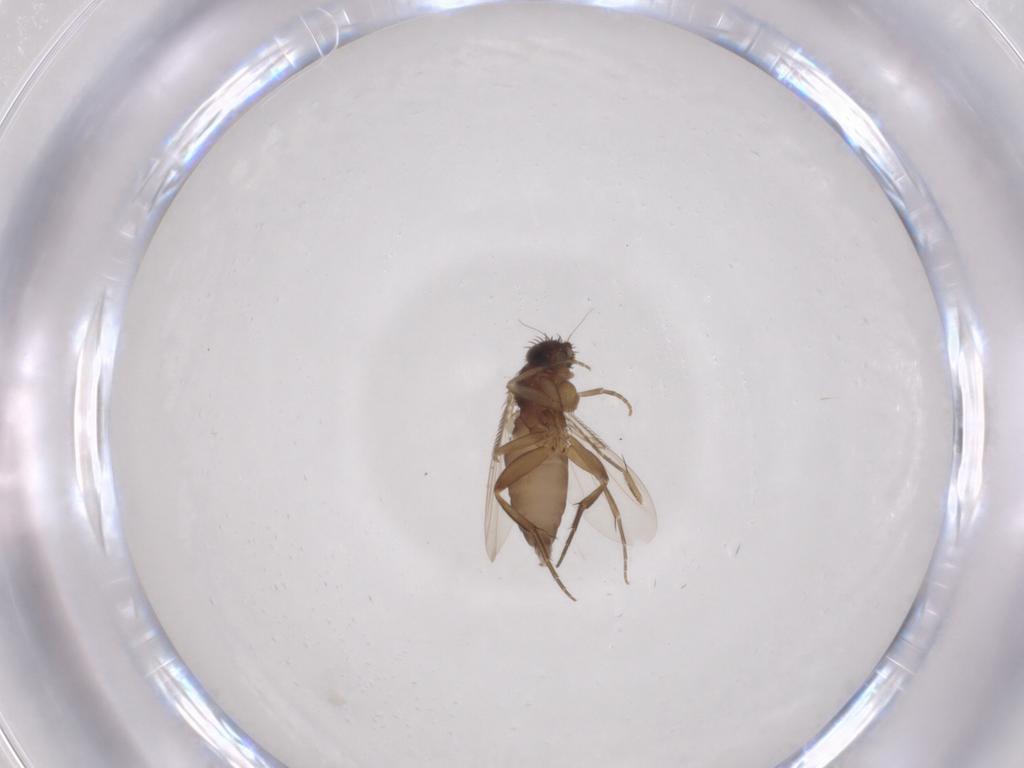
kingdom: Animalia
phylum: Arthropoda
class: Insecta
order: Diptera
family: Phoridae
